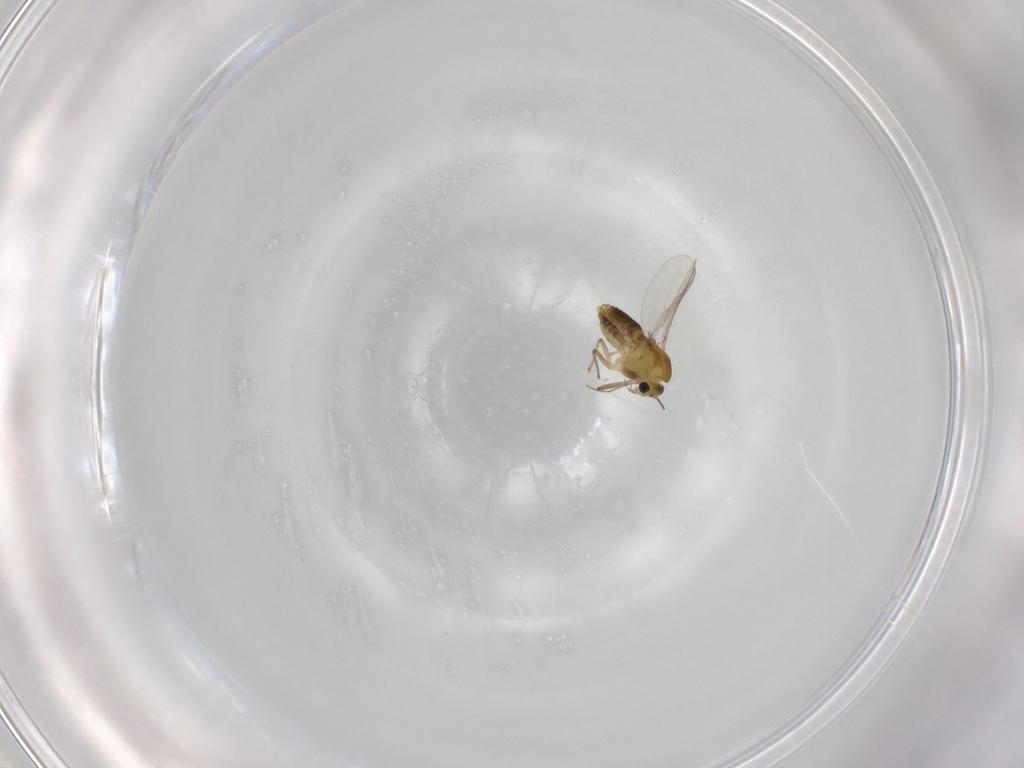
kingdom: Animalia
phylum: Arthropoda
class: Insecta
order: Diptera
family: Chironomidae
